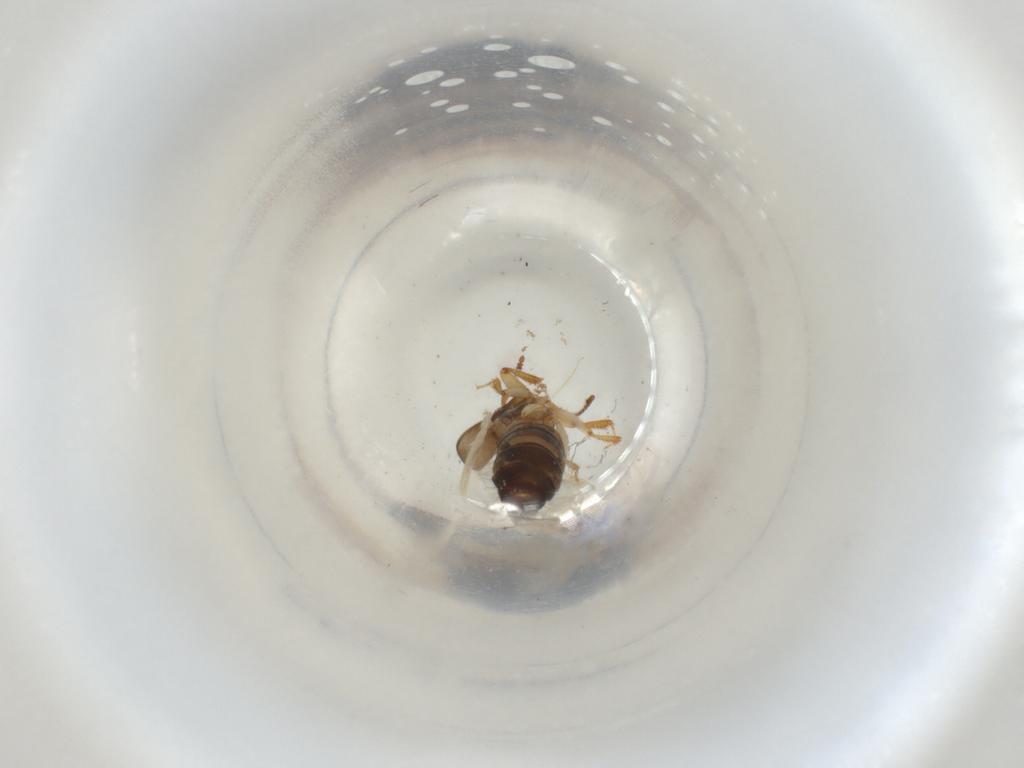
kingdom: Animalia
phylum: Arthropoda
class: Insecta
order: Coleoptera
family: Staphylinidae
